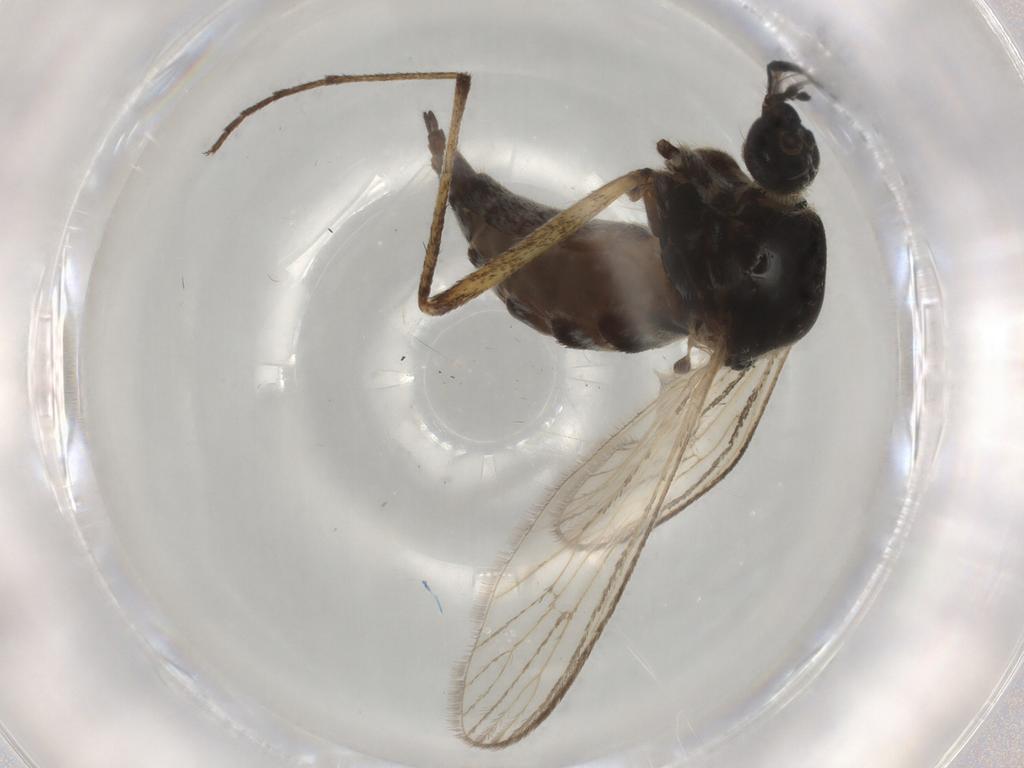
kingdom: Animalia
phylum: Arthropoda
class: Insecta
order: Diptera
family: Culicidae
